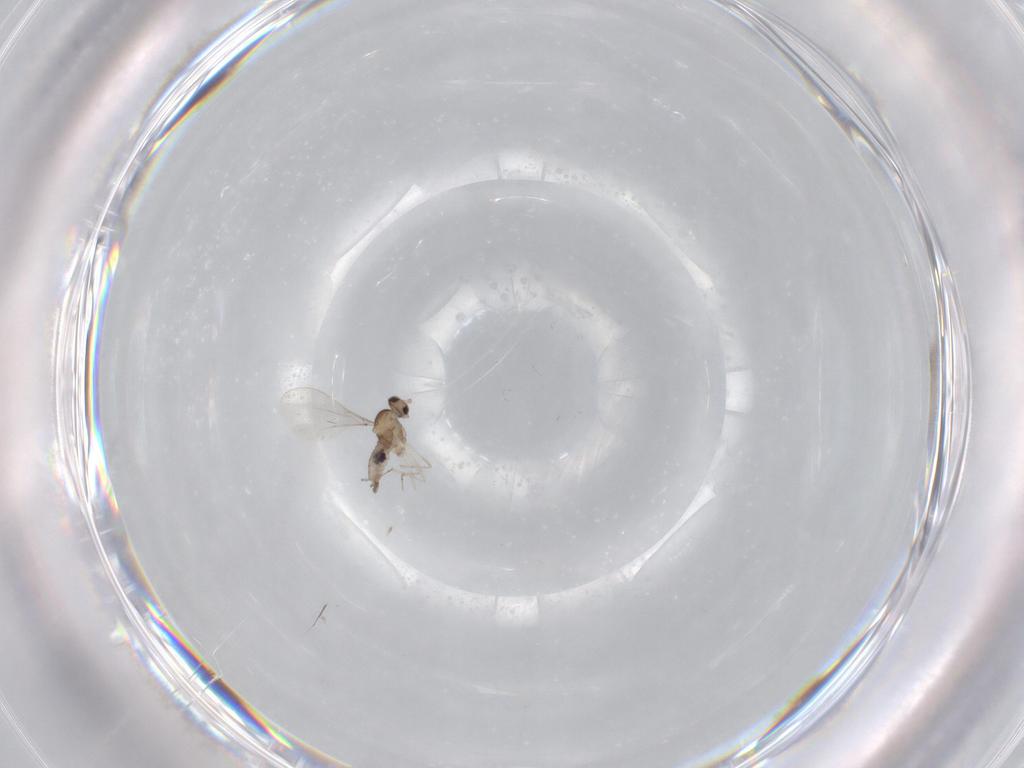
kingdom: Animalia
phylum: Arthropoda
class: Insecta
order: Diptera
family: Cecidomyiidae
